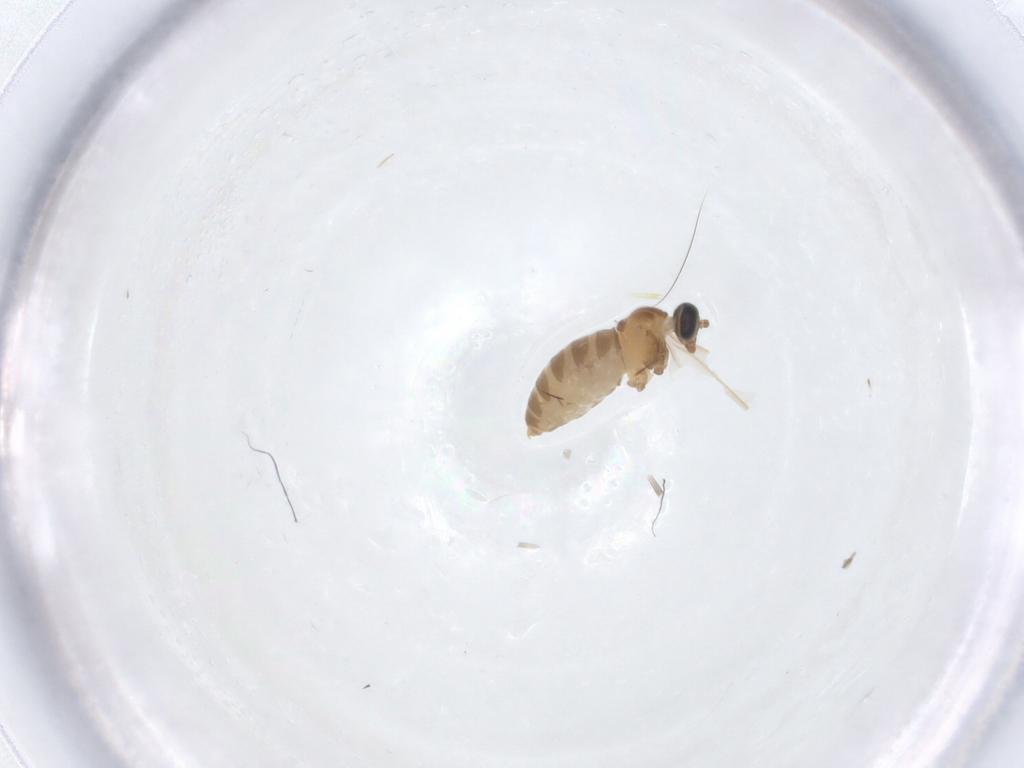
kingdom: Animalia
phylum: Arthropoda
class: Insecta
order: Diptera
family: Cecidomyiidae
